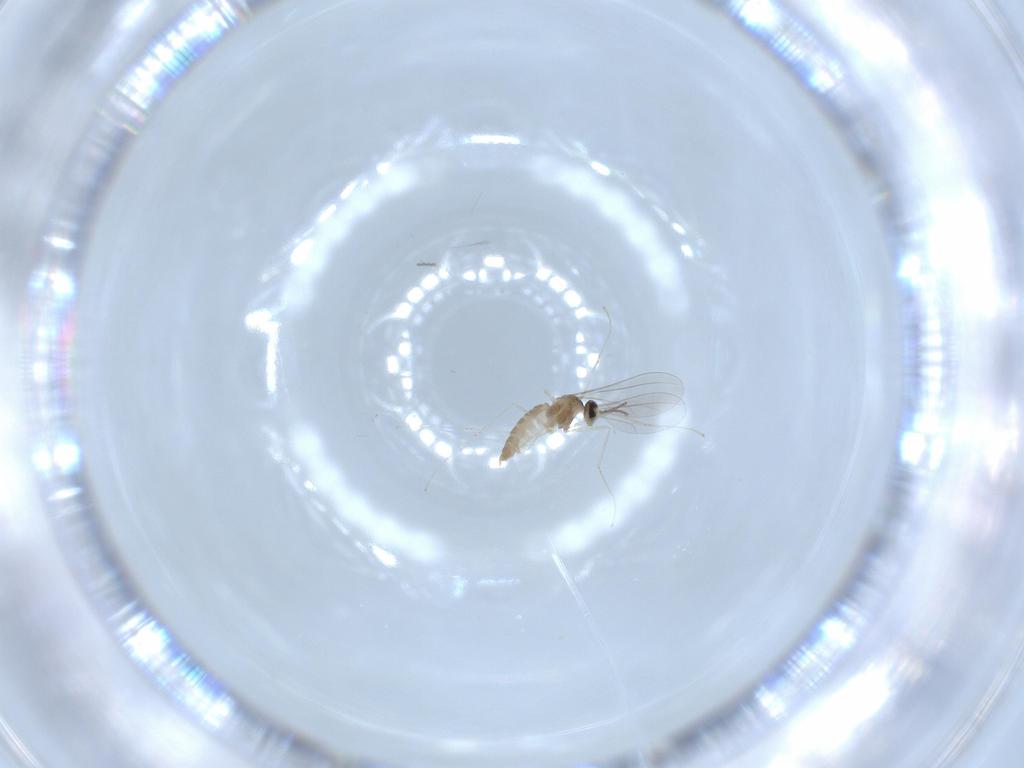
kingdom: Animalia
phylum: Arthropoda
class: Insecta
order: Diptera
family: Cecidomyiidae
